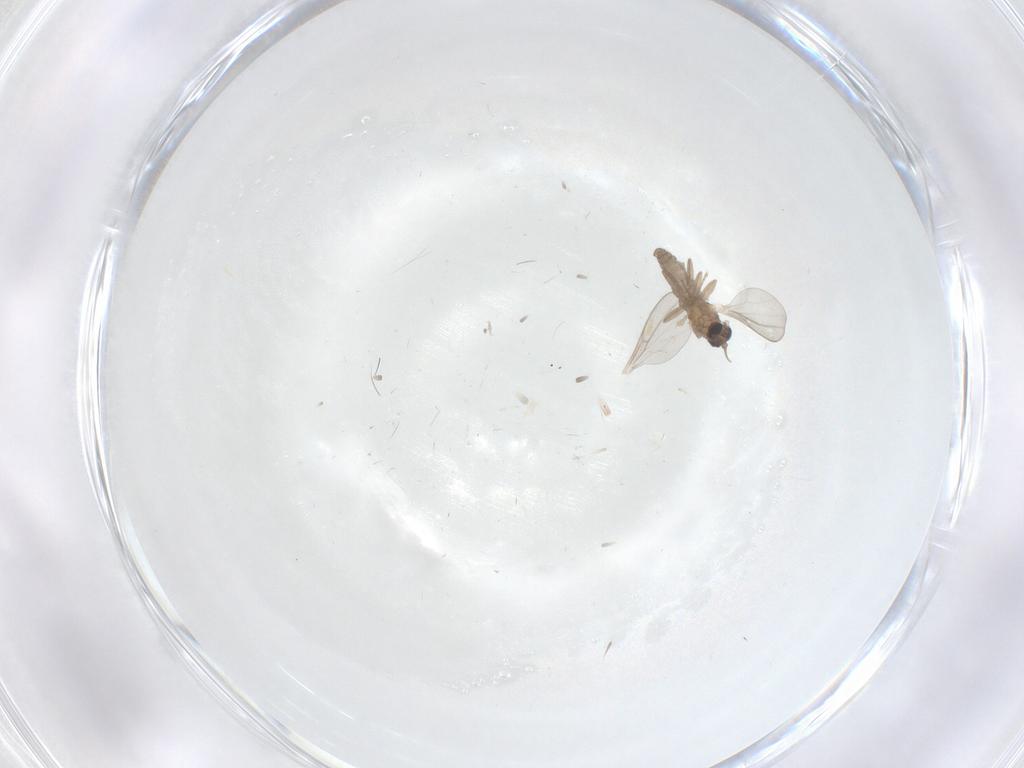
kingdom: Animalia
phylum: Arthropoda
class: Insecta
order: Diptera
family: Cecidomyiidae
